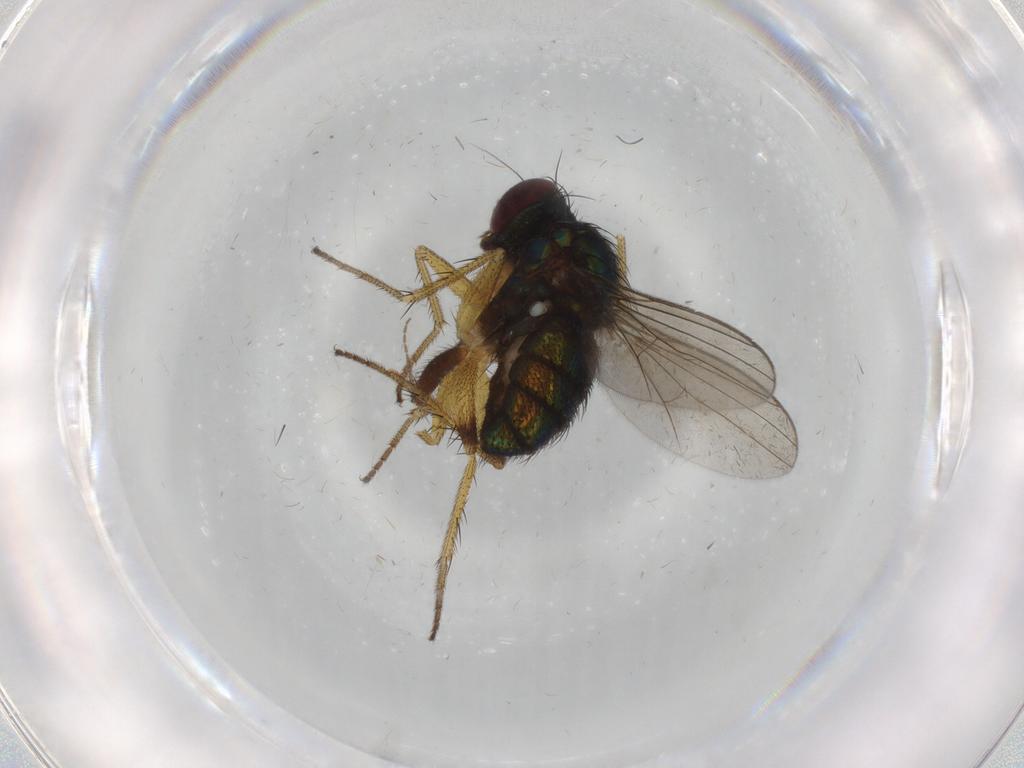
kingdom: Animalia
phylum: Arthropoda
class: Insecta
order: Diptera
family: Dolichopodidae
